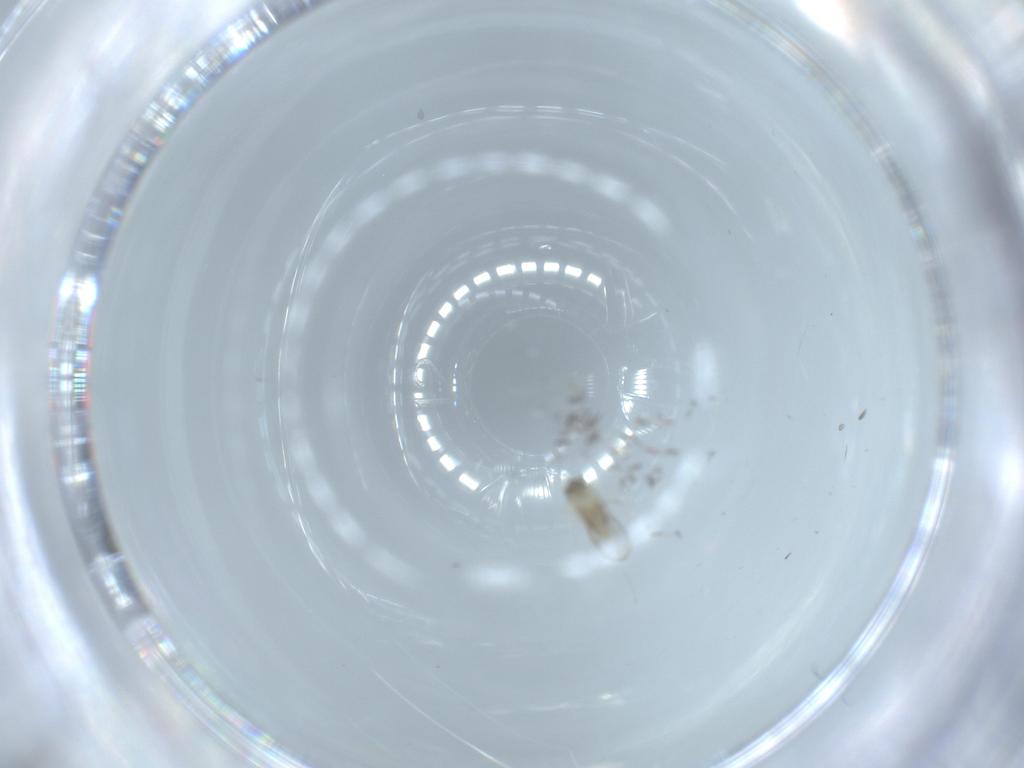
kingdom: Animalia
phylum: Arthropoda
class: Insecta
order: Diptera
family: Cecidomyiidae
